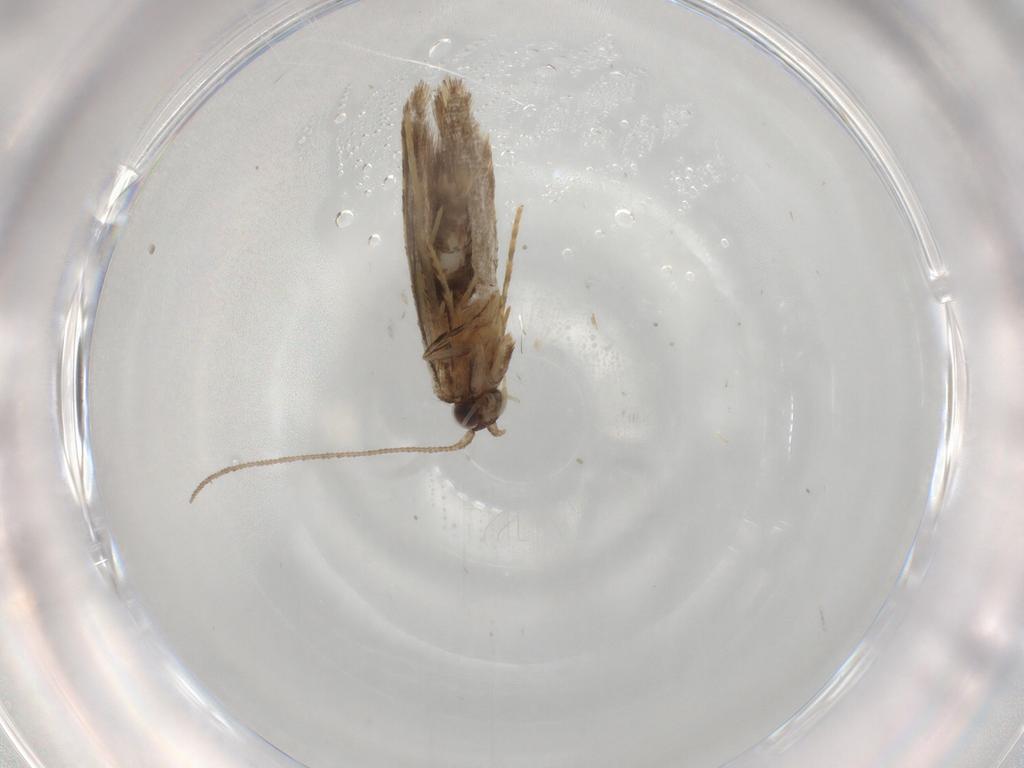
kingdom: Animalia
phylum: Arthropoda
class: Insecta
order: Lepidoptera
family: Tineidae
